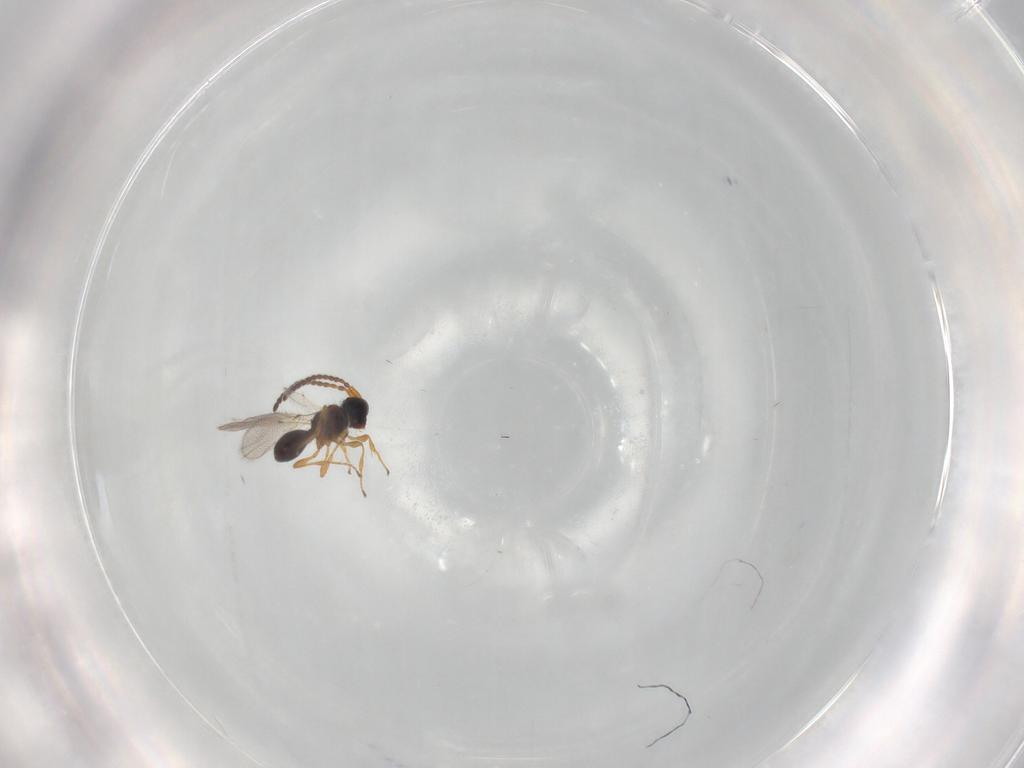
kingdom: Animalia
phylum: Arthropoda
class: Insecta
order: Hymenoptera
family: Diapriidae
